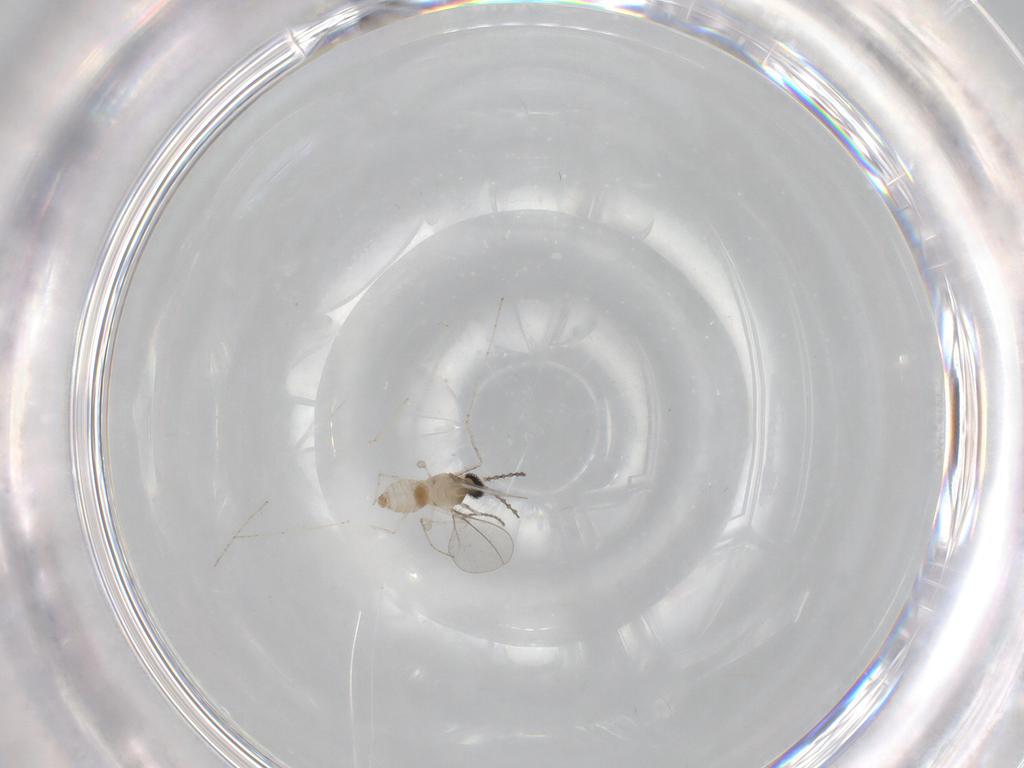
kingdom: Animalia
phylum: Arthropoda
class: Insecta
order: Diptera
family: Cecidomyiidae
